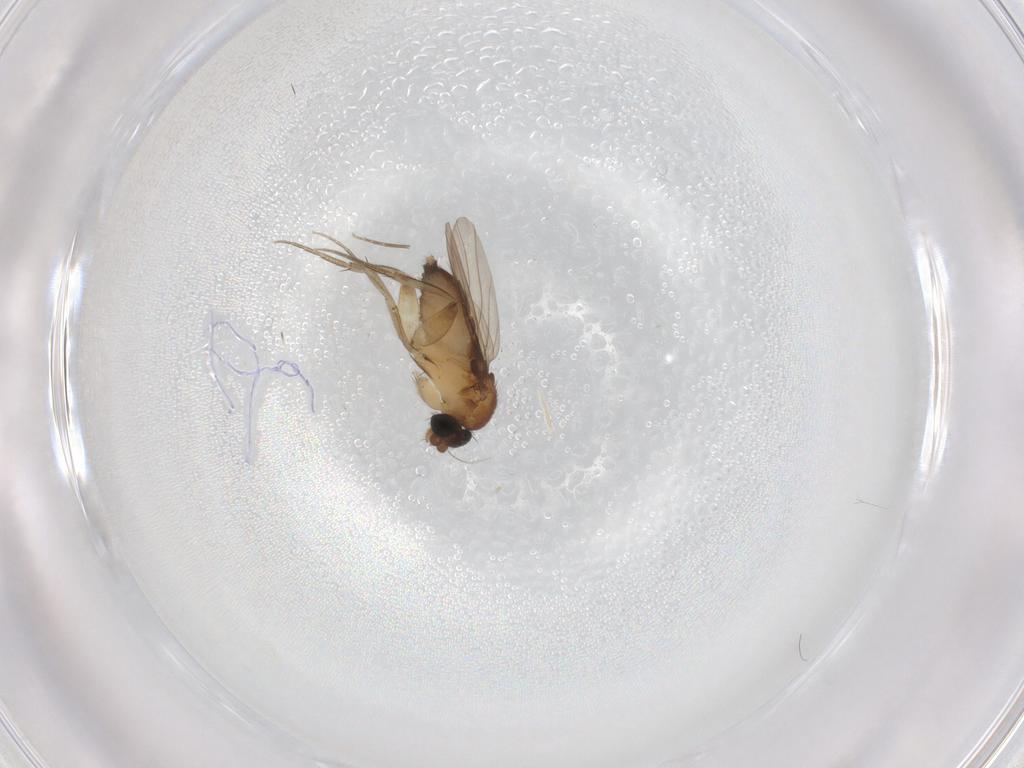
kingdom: Animalia
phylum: Arthropoda
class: Insecta
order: Diptera
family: Phoridae
